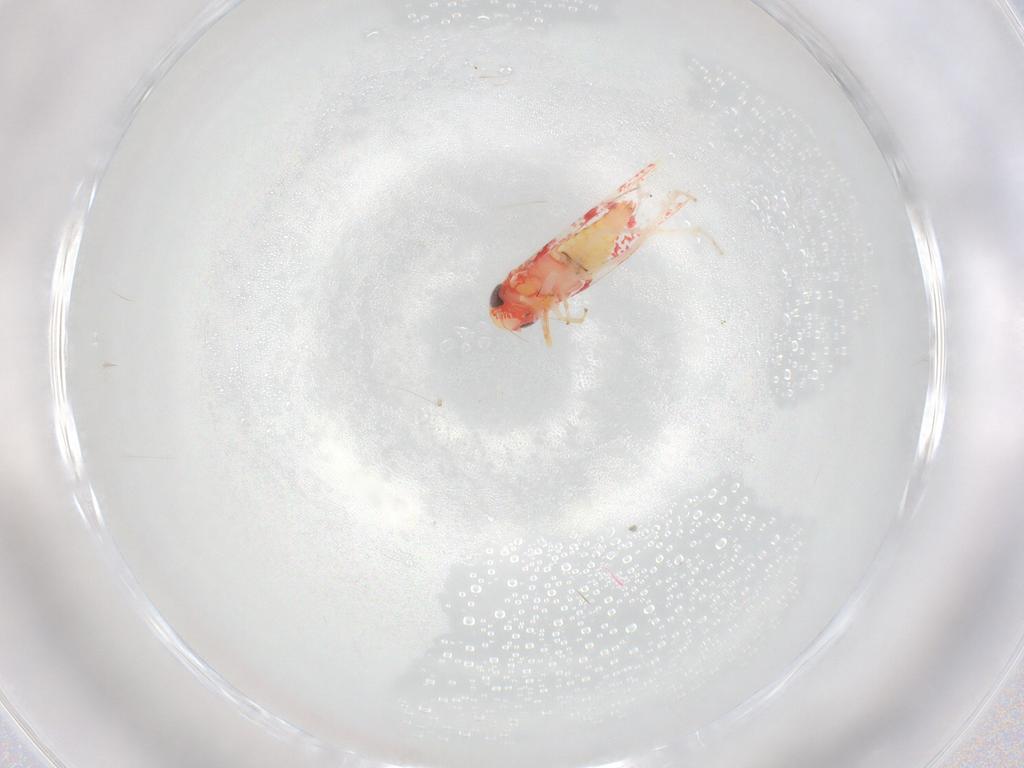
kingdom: Animalia
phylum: Arthropoda
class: Insecta
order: Hemiptera
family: Cicadellidae
